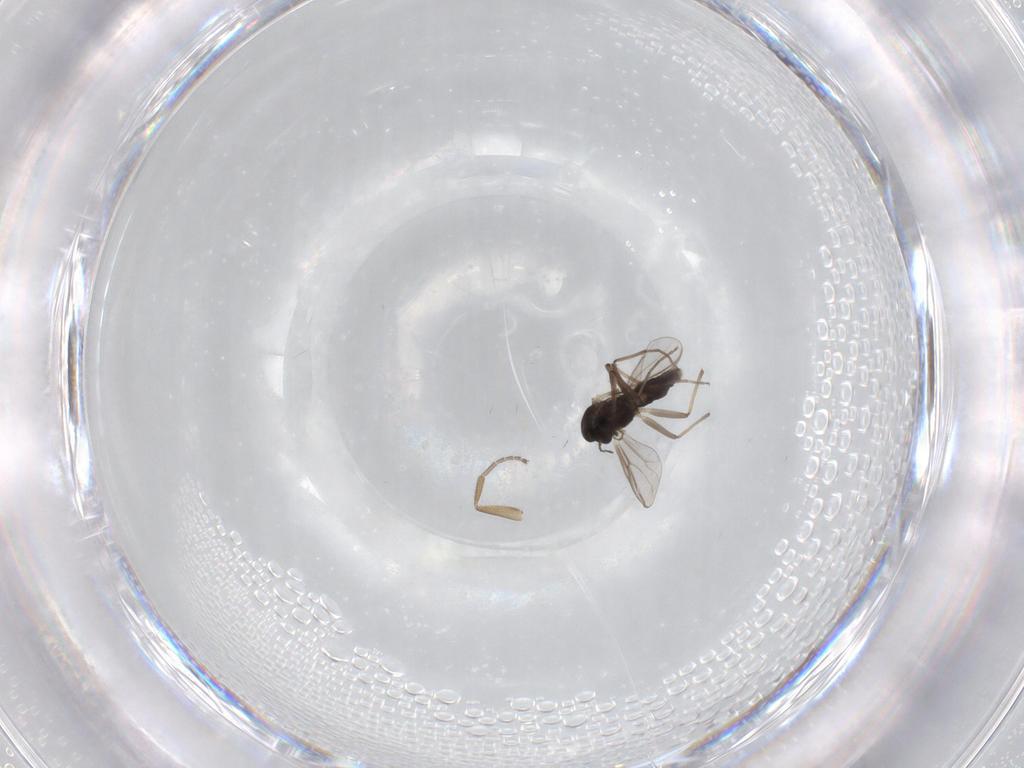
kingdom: Animalia
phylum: Arthropoda
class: Insecta
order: Diptera
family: Chironomidae
